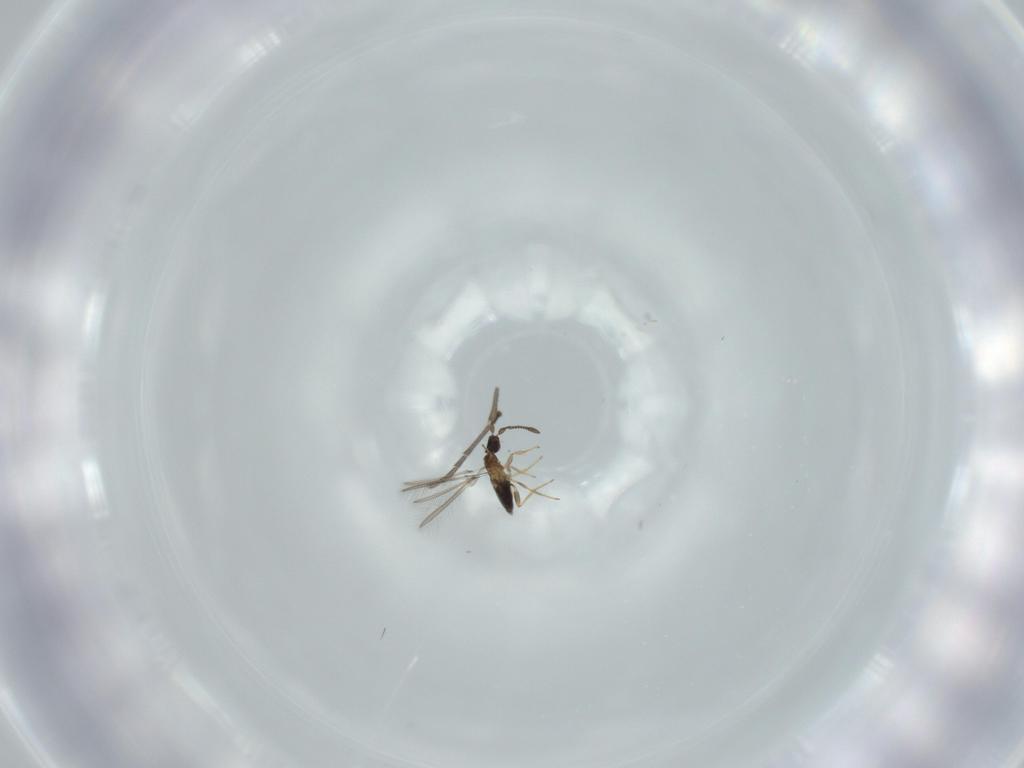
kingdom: Animalia
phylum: Arthropoda
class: Insecta
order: Hymenoptera
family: Mymaridae
